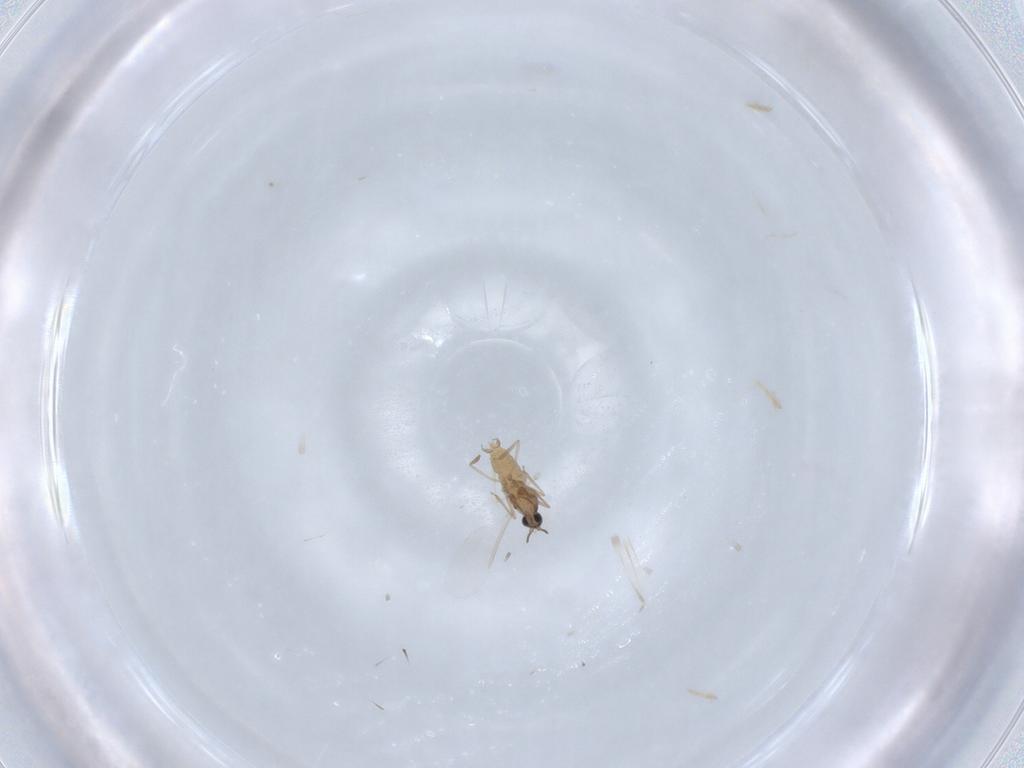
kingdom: Animalia
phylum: Arthropoda
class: Insecta
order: Diptera
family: Cecidomyiidae
